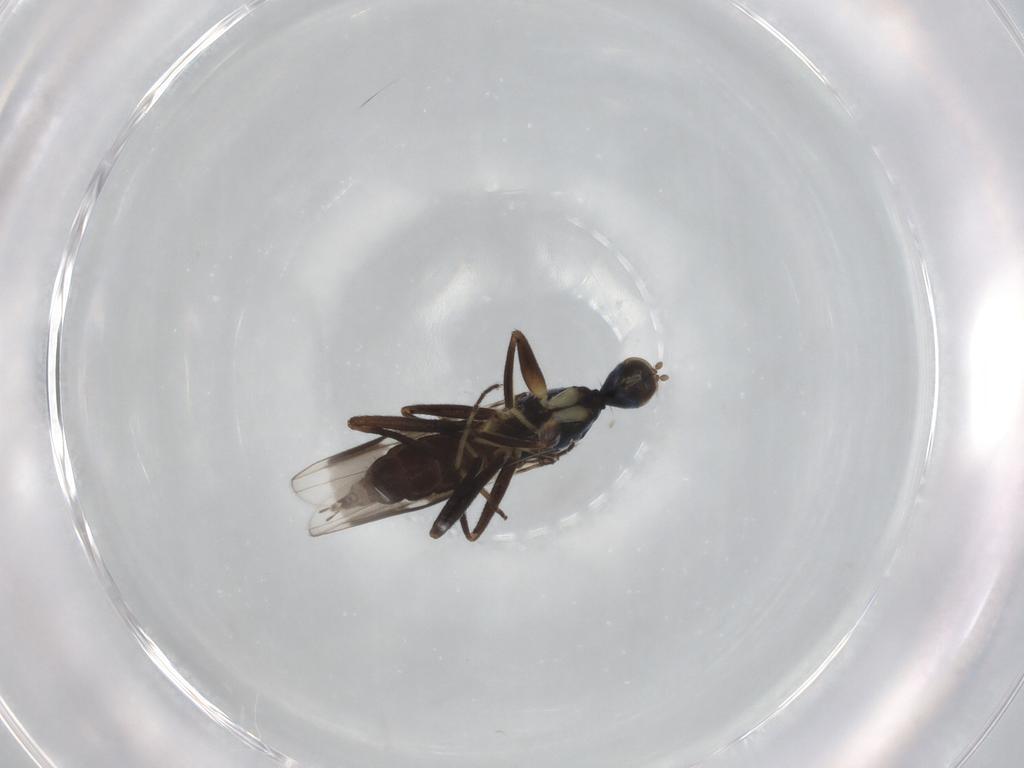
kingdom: Animalia
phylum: Arthropoda
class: Insecta
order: Diptera
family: Hybotidae
